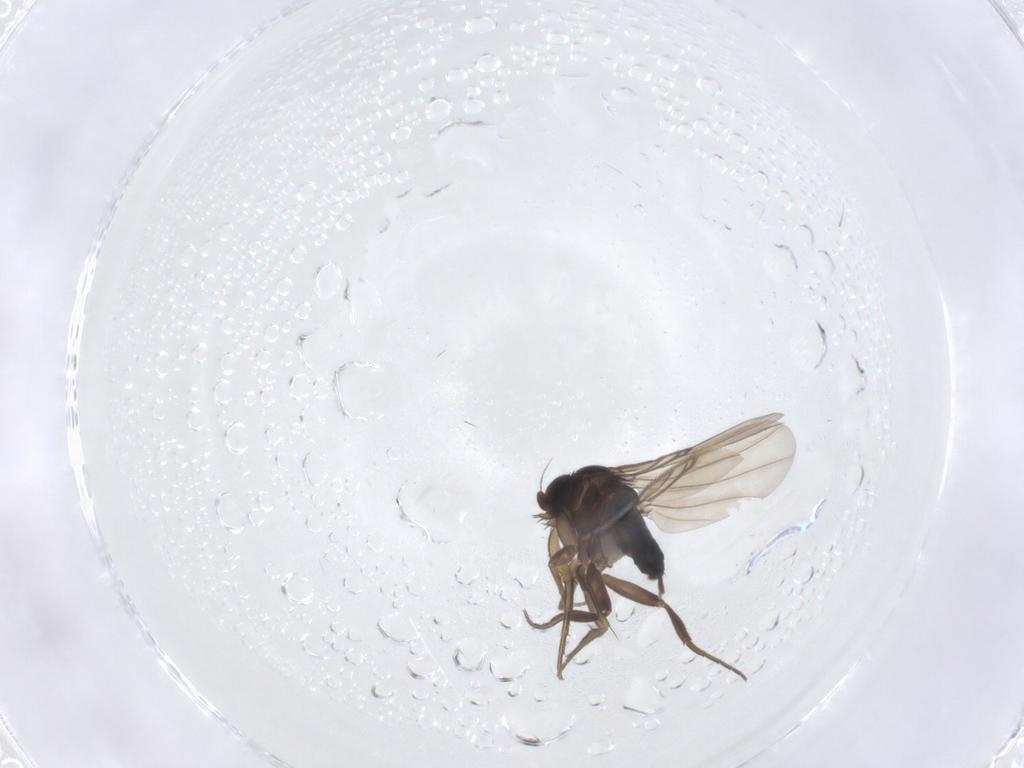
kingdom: Animalia
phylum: Arthropoda
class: Insecta
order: Diptera
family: Phoridae
